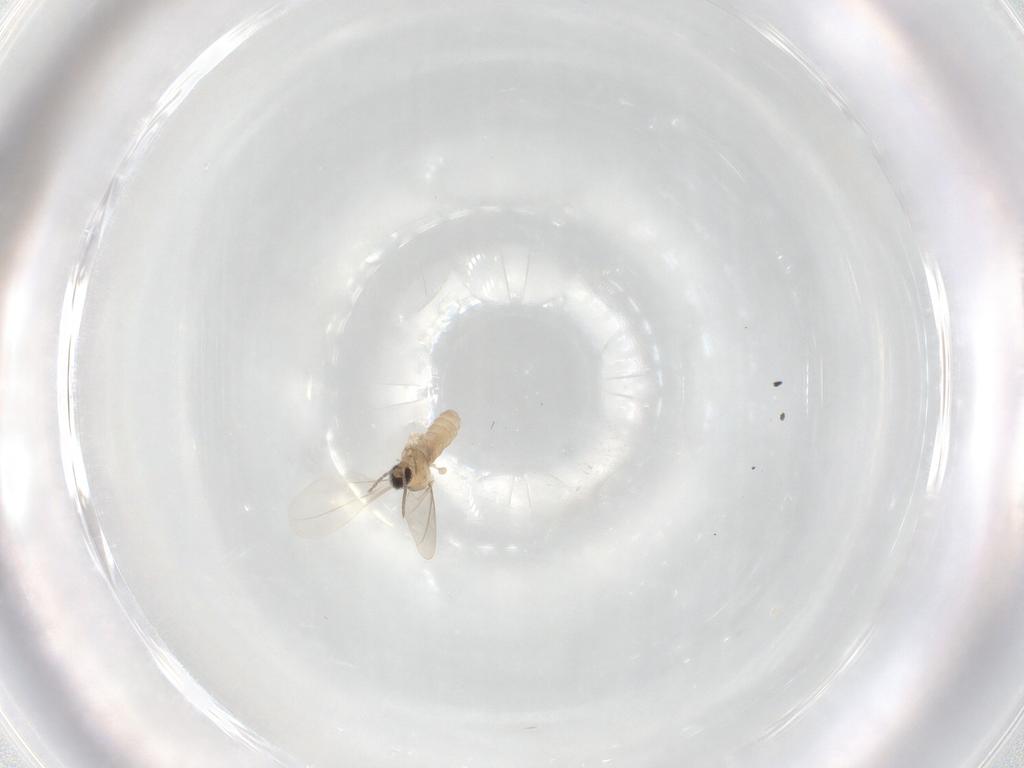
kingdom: Animalia
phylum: Arthropoda
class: Insecta
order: Diptera
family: Cecidomyiidae
